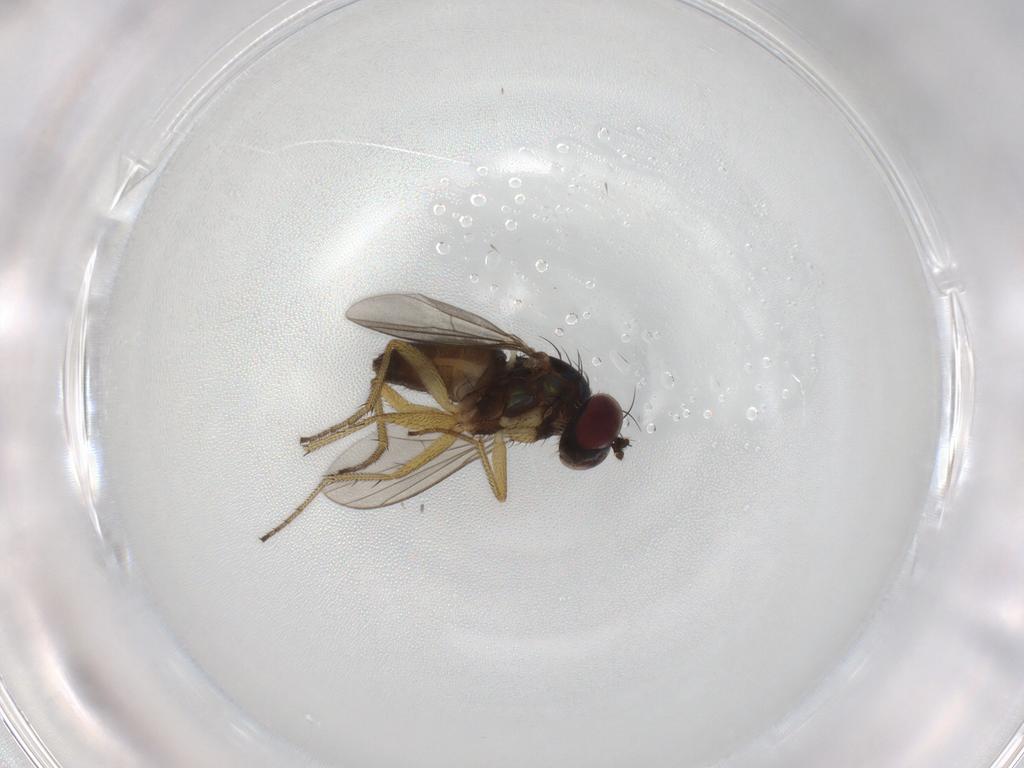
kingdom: Animalia
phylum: Arthropoda
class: Insecta
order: Diptera
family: Dolichopodidae
